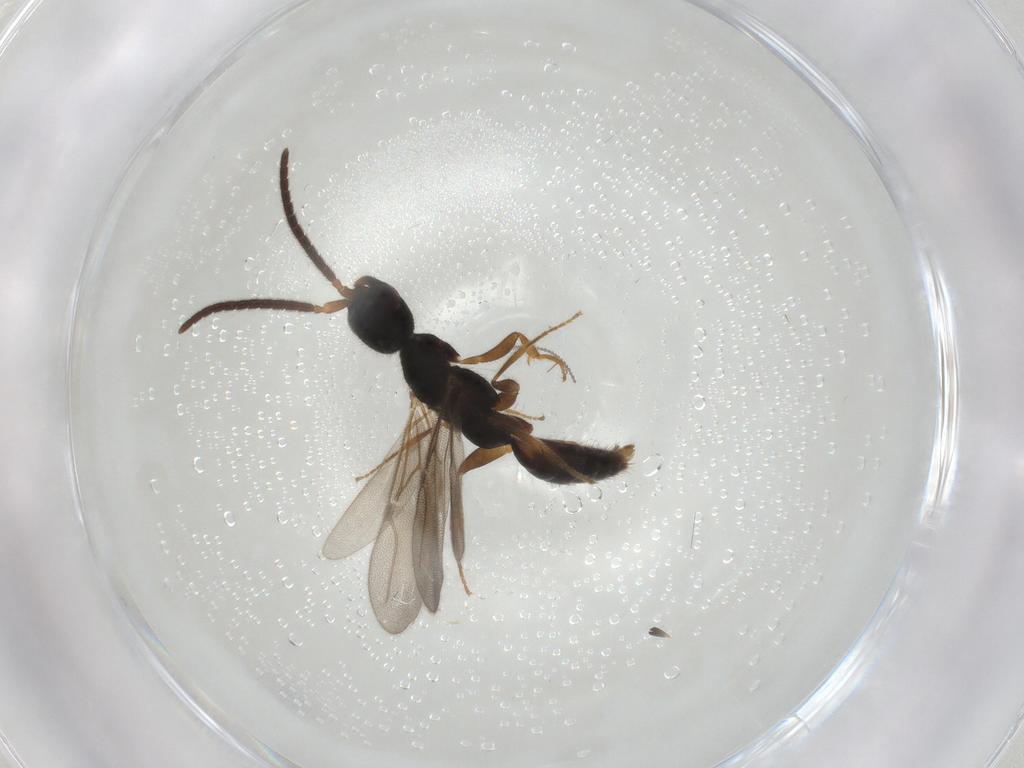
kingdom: Animalia
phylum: Arthropoda
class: Insecta
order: Hymenoptera
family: Bethylidae
